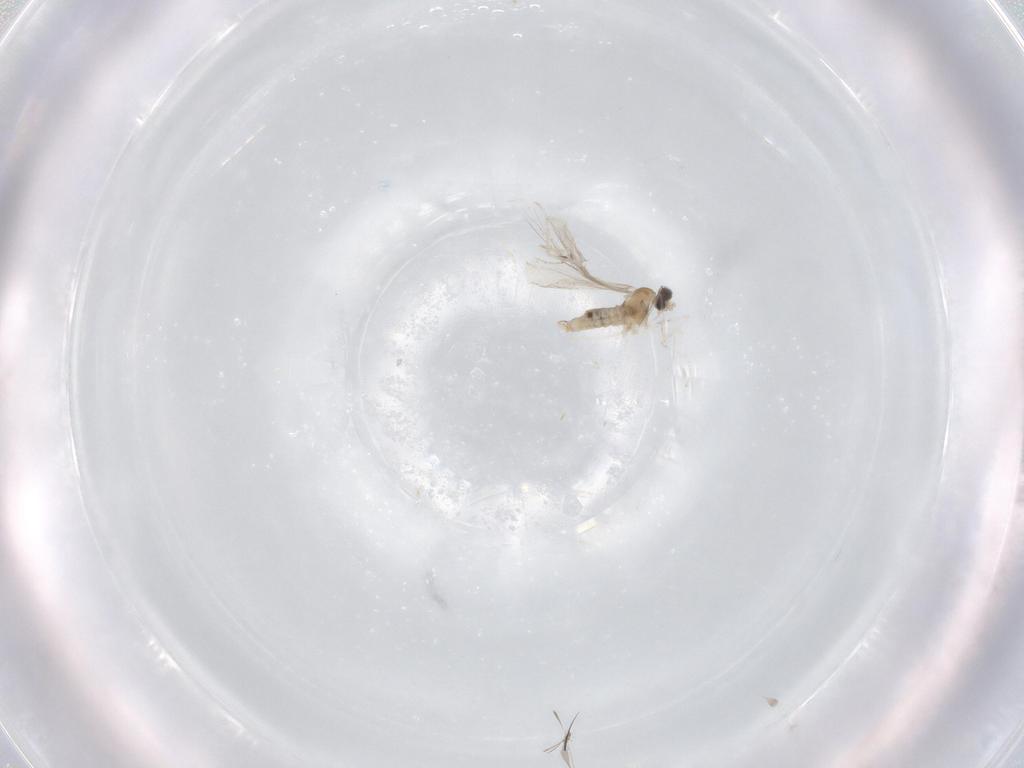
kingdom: Animalia
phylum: Arthropoda
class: Insecta
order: Diptera
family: Cecidomyiidae
